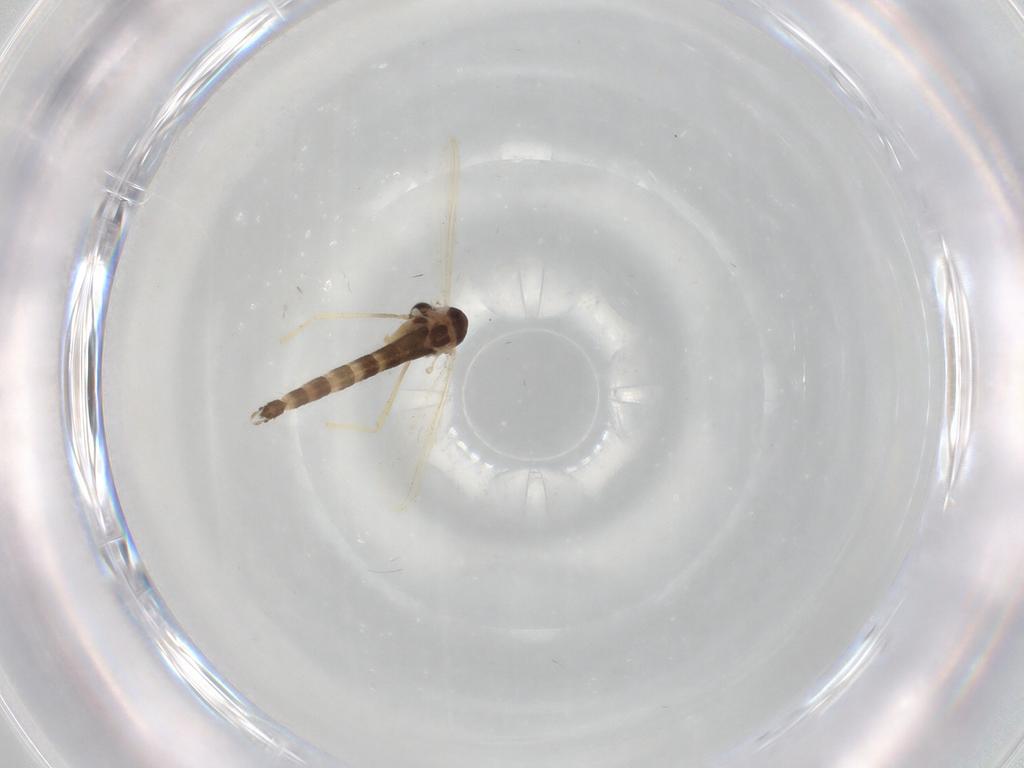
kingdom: Animalia
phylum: Arthropoda
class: Insecta
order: Diptera
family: Chironomidae
